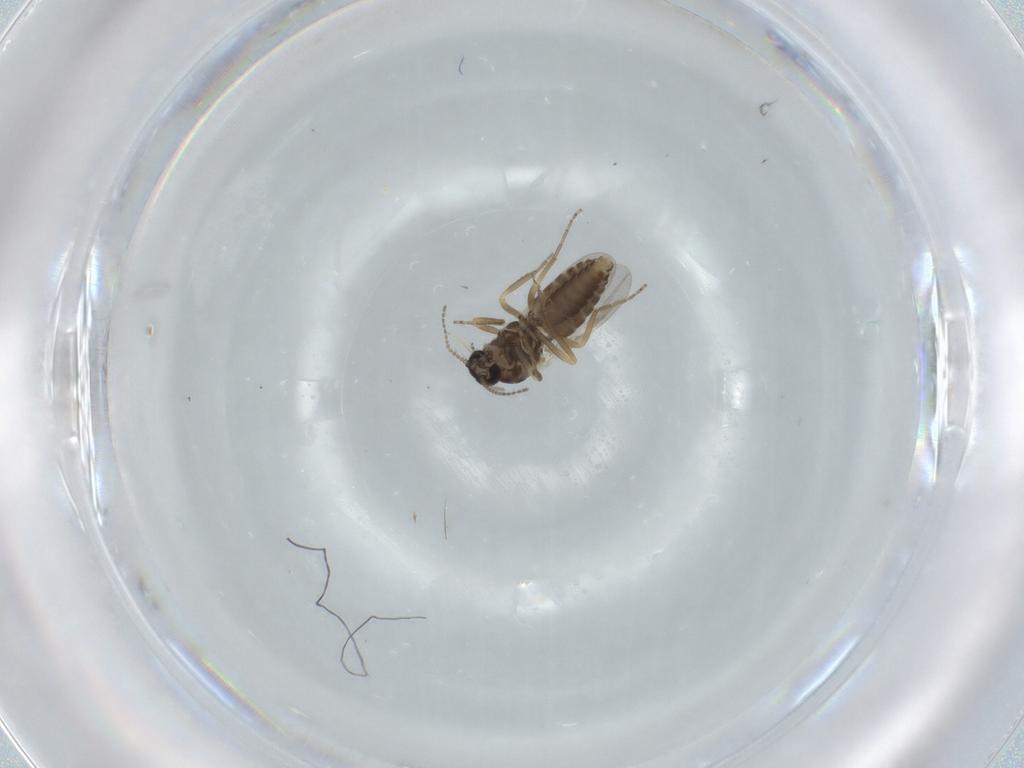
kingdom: Animalia
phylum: Arthropoda
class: Insecta
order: Diptera
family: Ceratopogonidae
